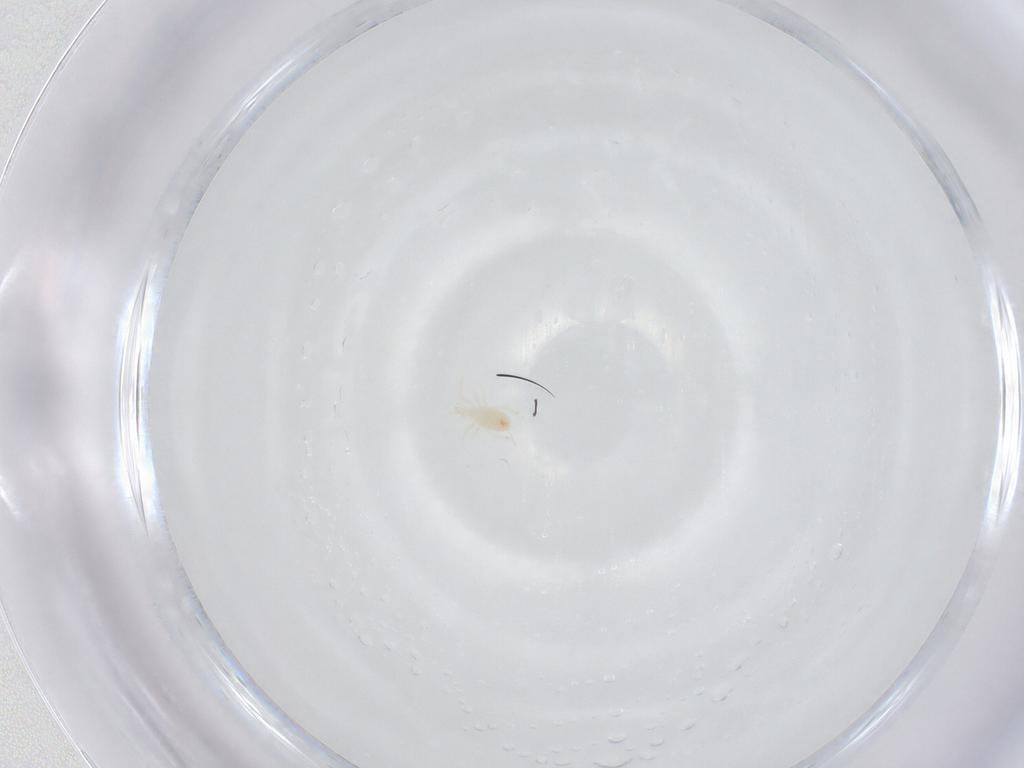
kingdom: Animalia
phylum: Arthropoda
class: Arachnida
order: Mesostigmata
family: Phytoseiidae
